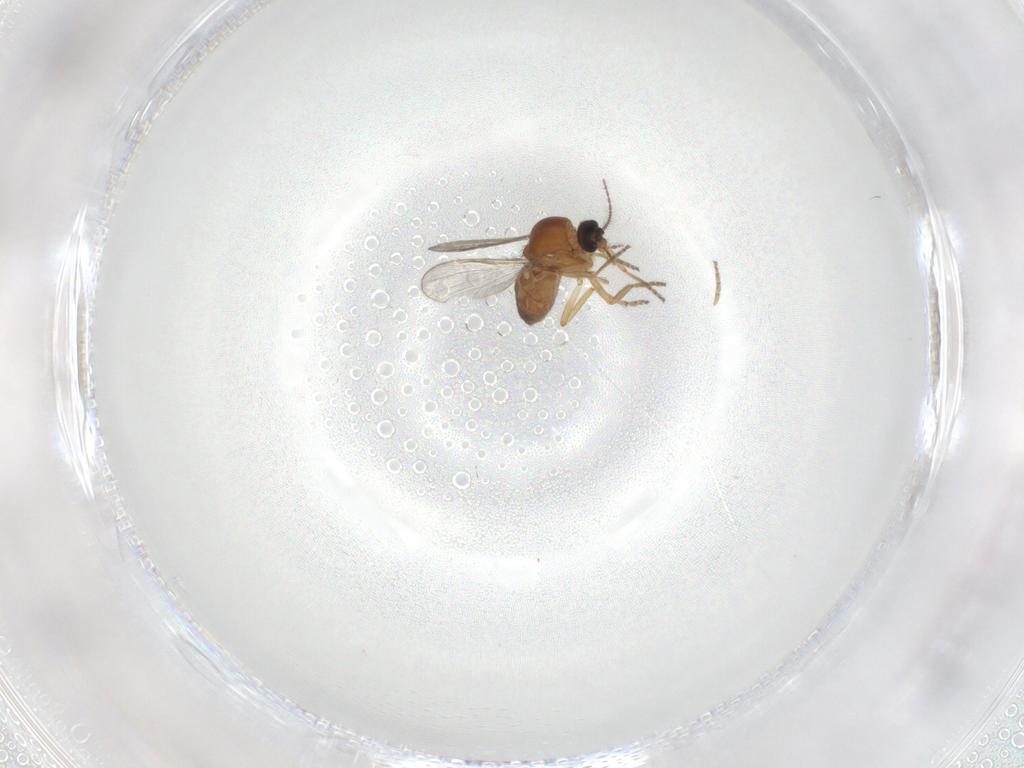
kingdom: Animalia
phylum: Arthropoda
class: Insecta
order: Diptera
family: Ceratopogonidae
